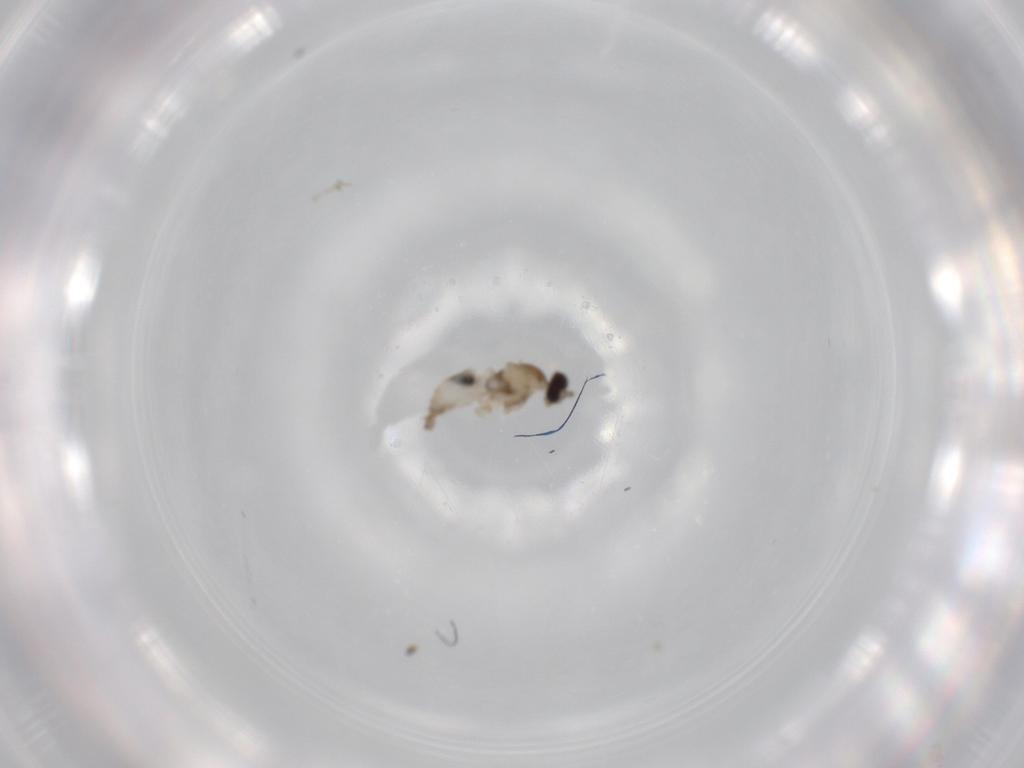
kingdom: Animalia
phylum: Arthropoda
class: Insecta
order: Diptera
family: Cecidomyiidae
